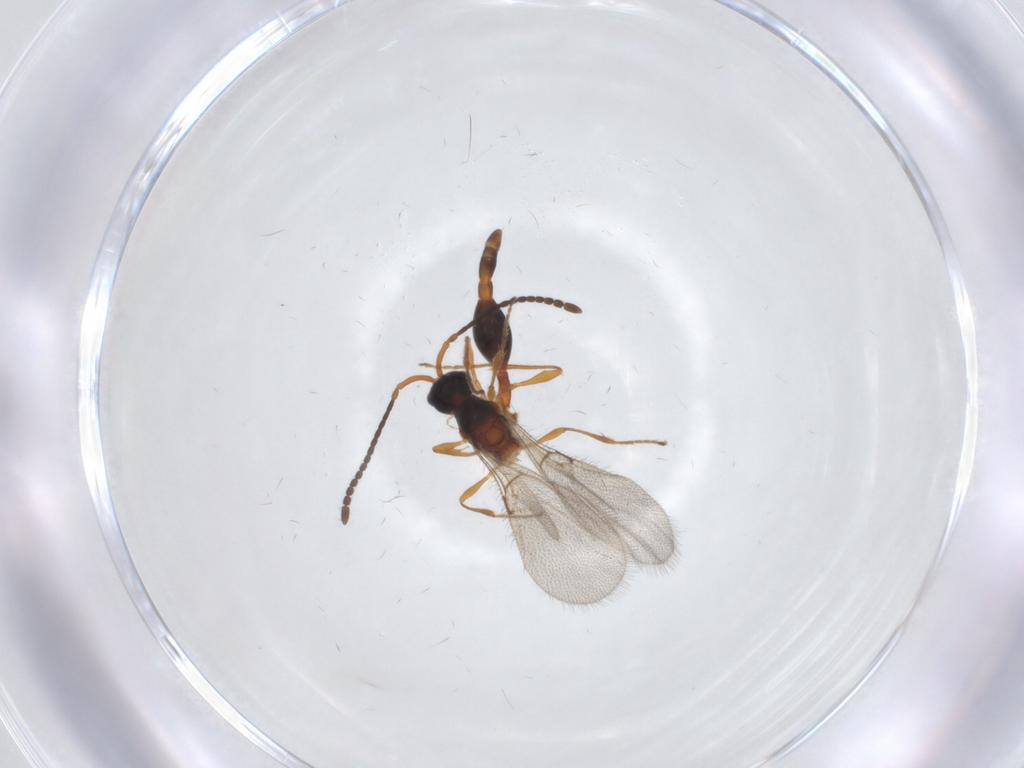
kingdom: Animalia
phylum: Arthropoda
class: Insecta
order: Hymenoptera
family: Diapriidae
